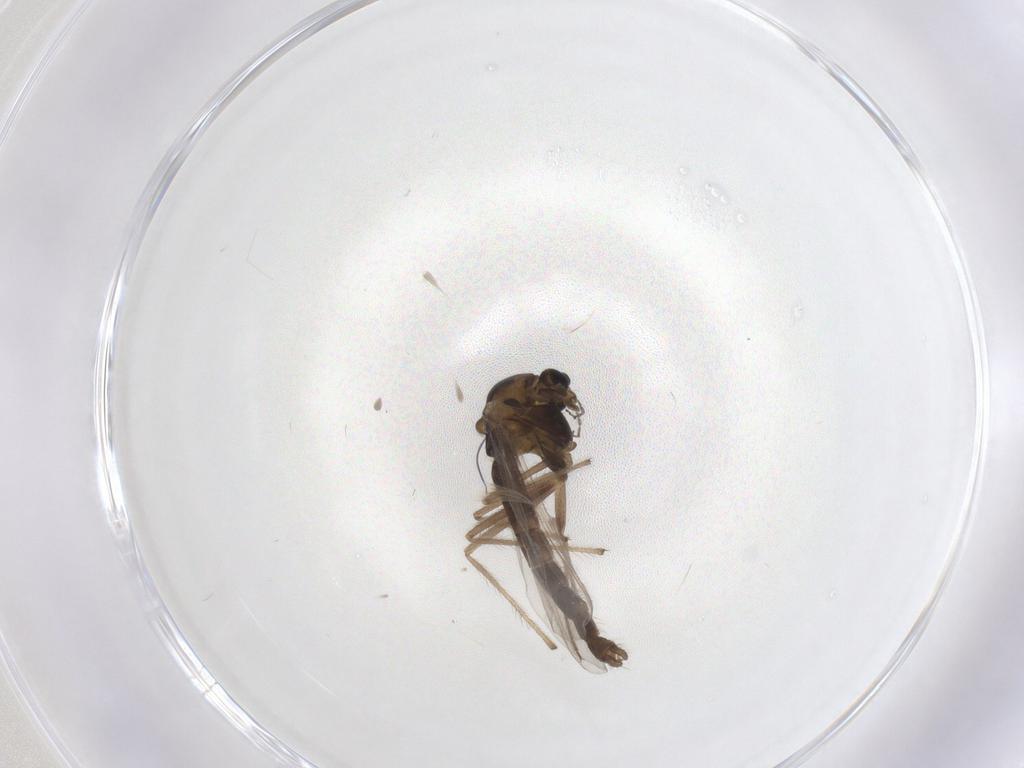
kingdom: Animalia
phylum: Arthropoda
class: Insecta
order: Diptera
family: Chironomidae
